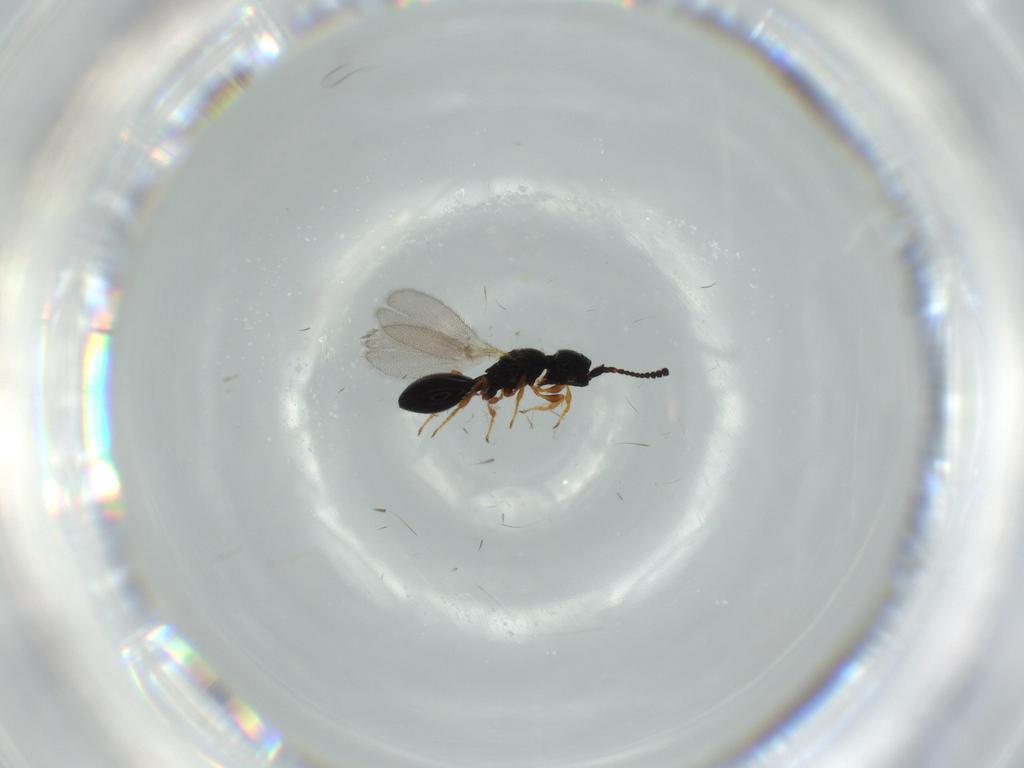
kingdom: Animalia
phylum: Arthropoda
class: Insecta
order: Hymenoptera
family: Diapriidae
